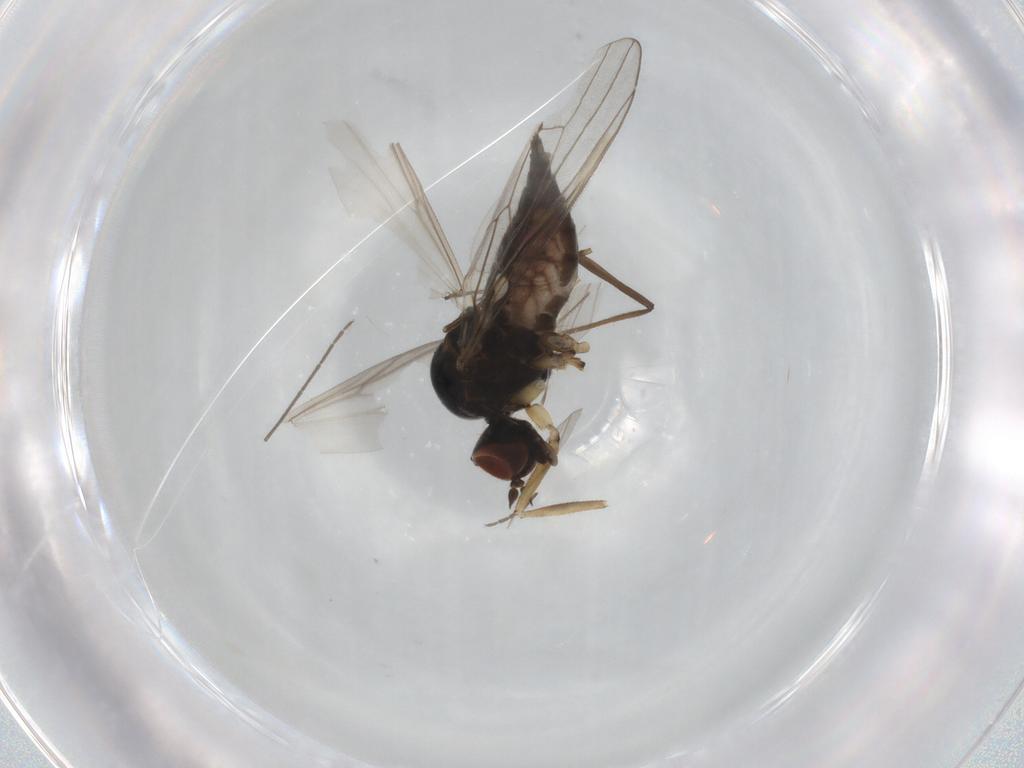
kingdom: Animalia
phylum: Arthropoda
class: Insecta
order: Diptera
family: Hybotidae
